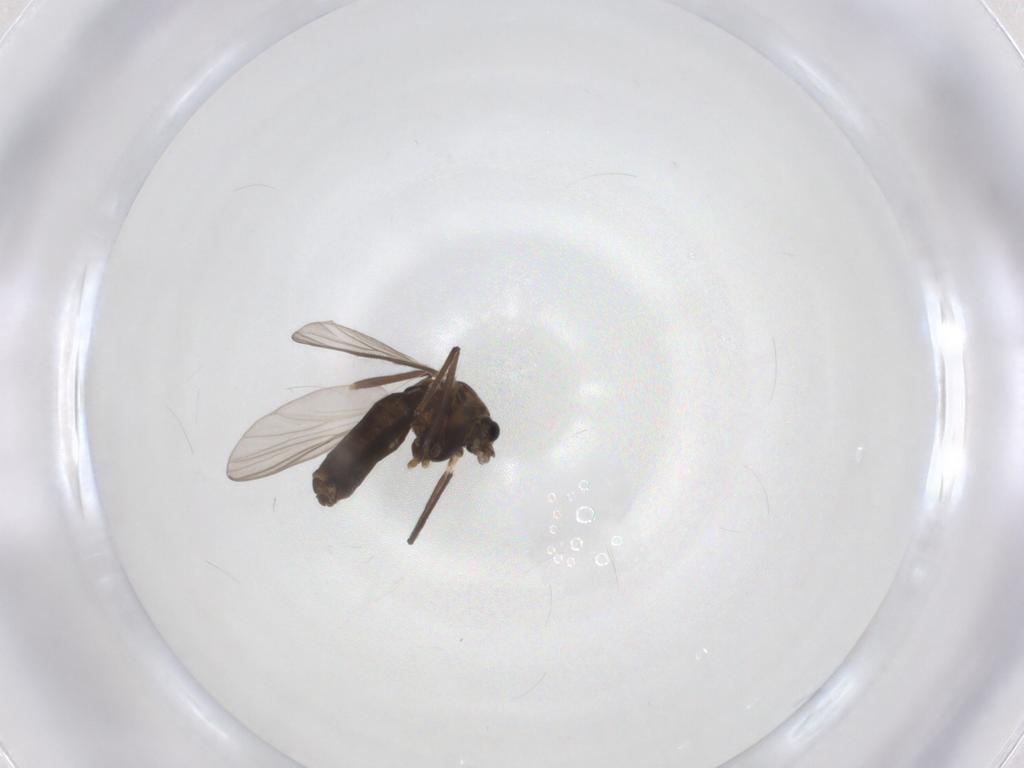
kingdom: Animalia
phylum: Arthropoda
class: Insecta
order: Diptera
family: Chironomidae
